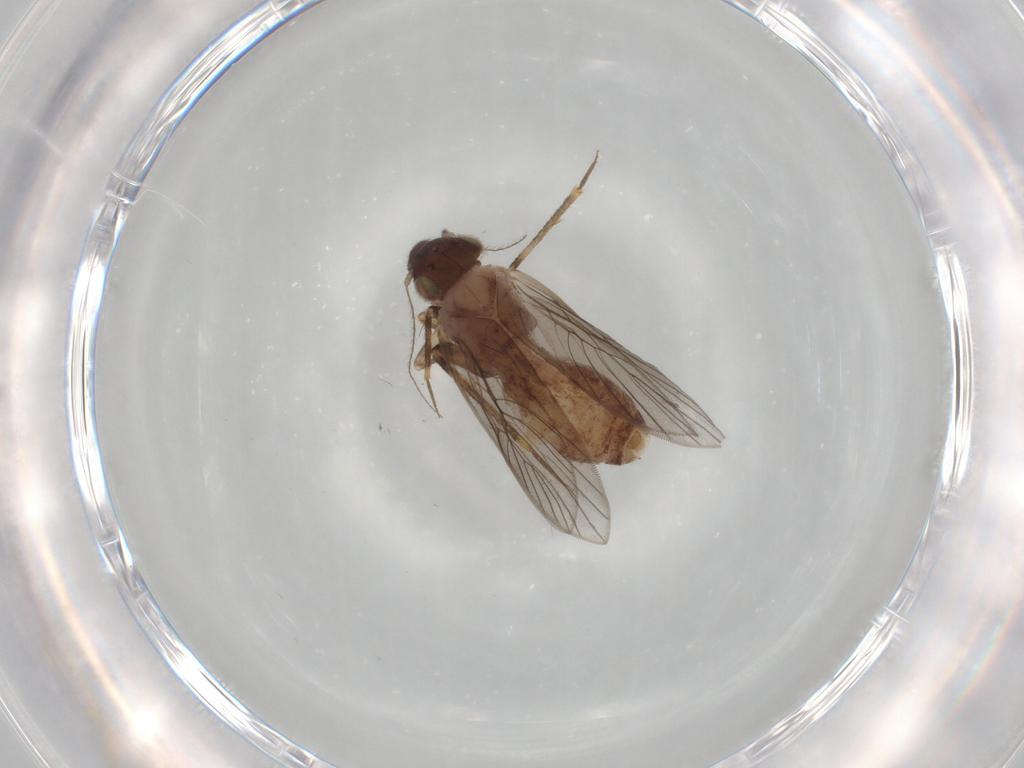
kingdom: Animalia
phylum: Arthropoda
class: Insecta
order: Psocodea
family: Lepidopsocidae
